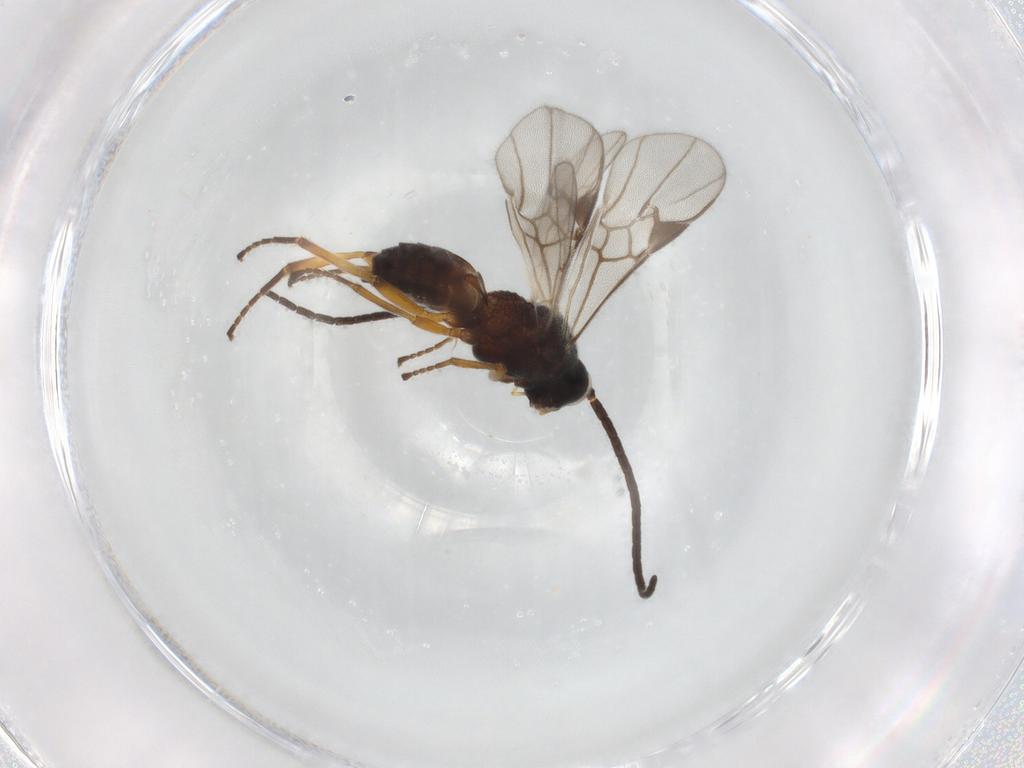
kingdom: Animalia
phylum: Arthropoda
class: Insecta
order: Hymenoptera
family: Braconidae
